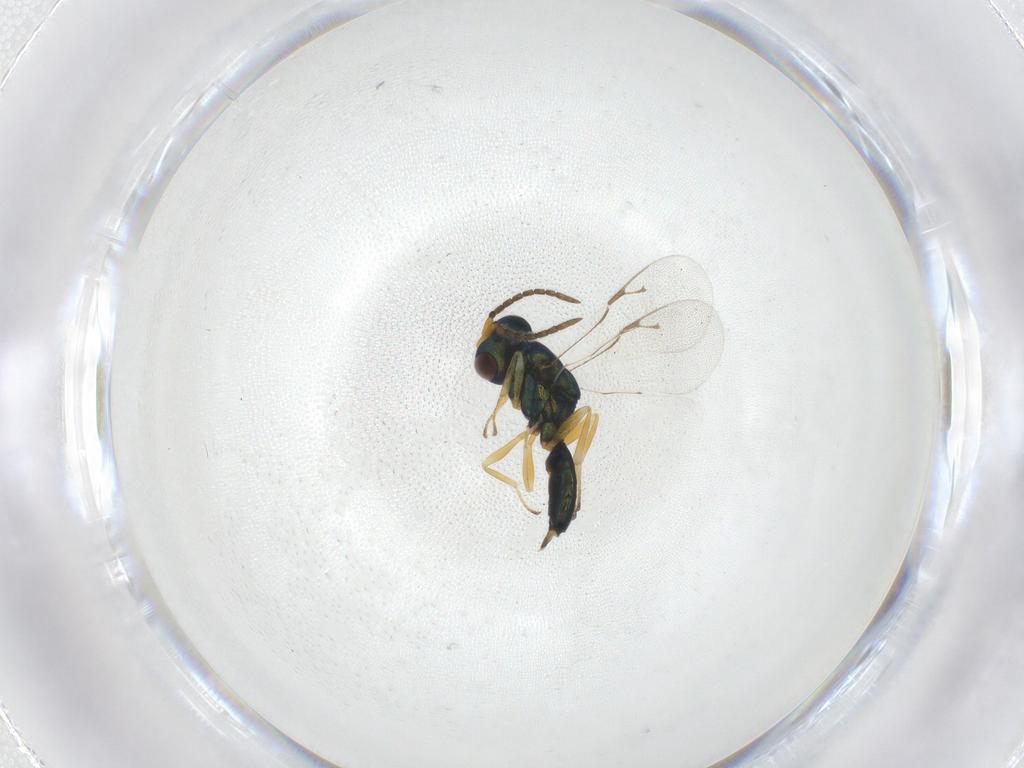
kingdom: Animalia
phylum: Arthropoda
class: Insecta
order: Hymenoptera
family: Pteromalidae
